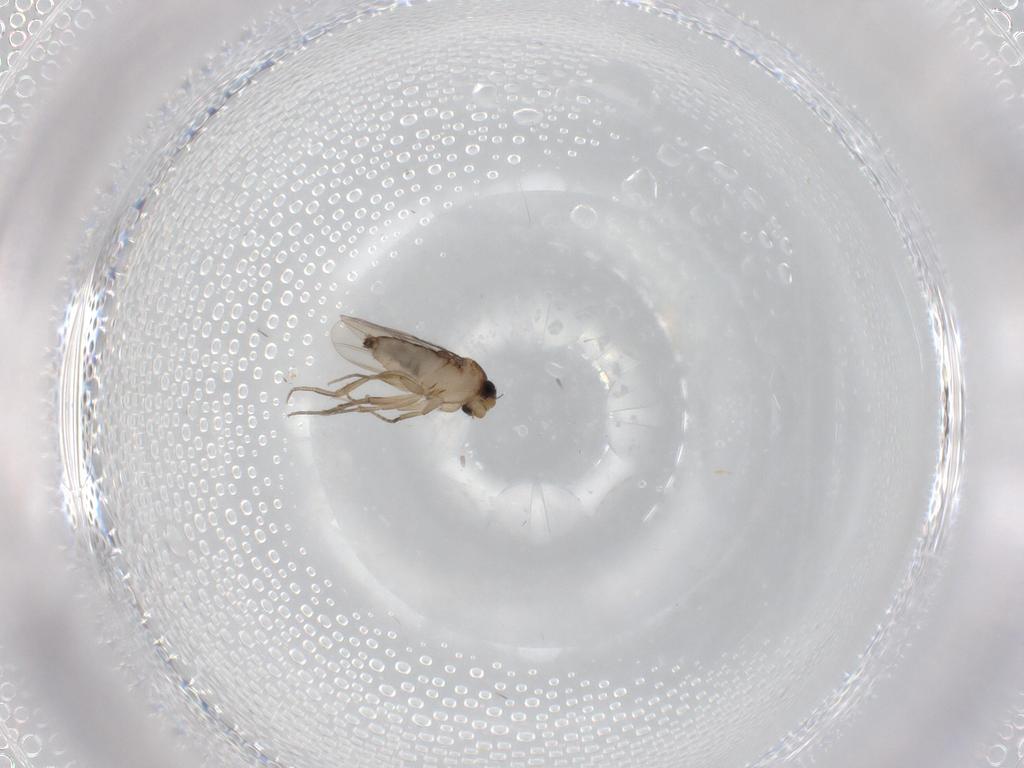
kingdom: Animalia
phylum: Arthropoda
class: Insecta
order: Diptera
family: Phoridae
